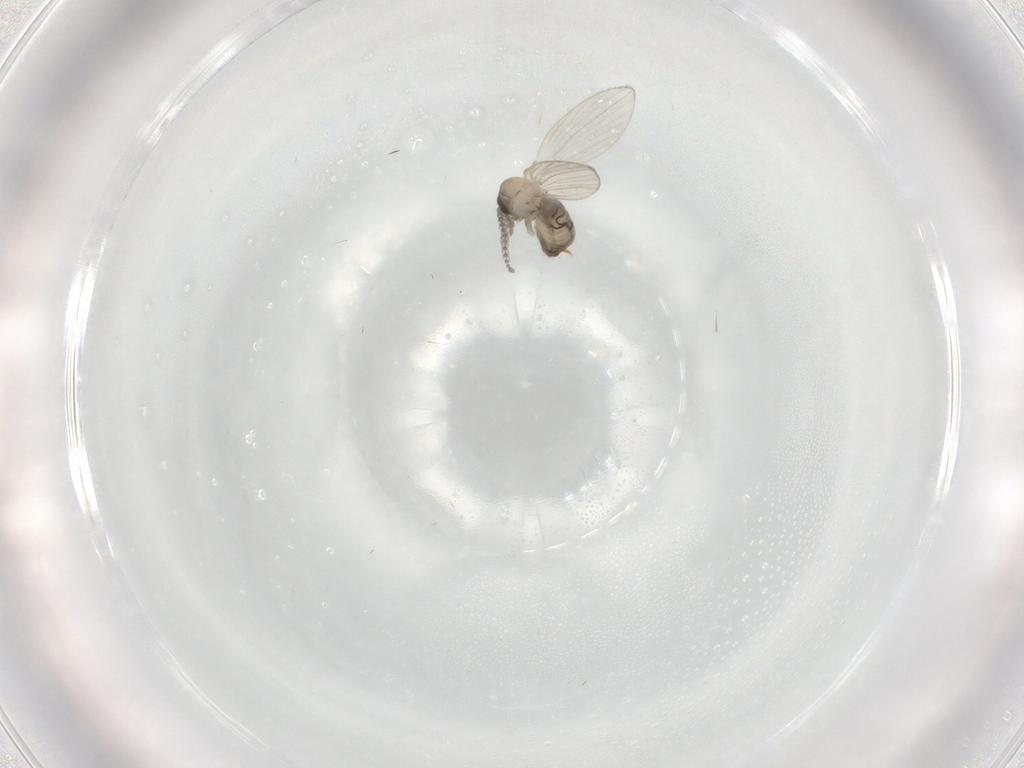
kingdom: Animalia
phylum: Arthropoda
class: Insecta
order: Diptera
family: Psychodidae
